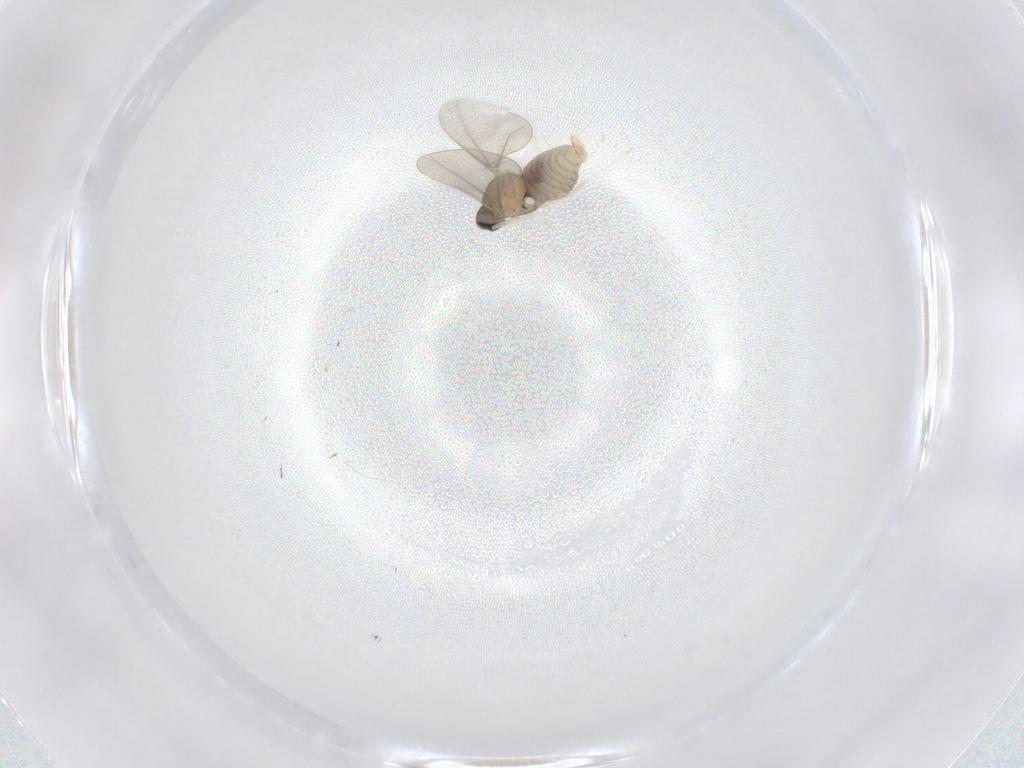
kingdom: Animalia
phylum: Arthropoda
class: Insecta
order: Diptera
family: Cecidomyiidae
